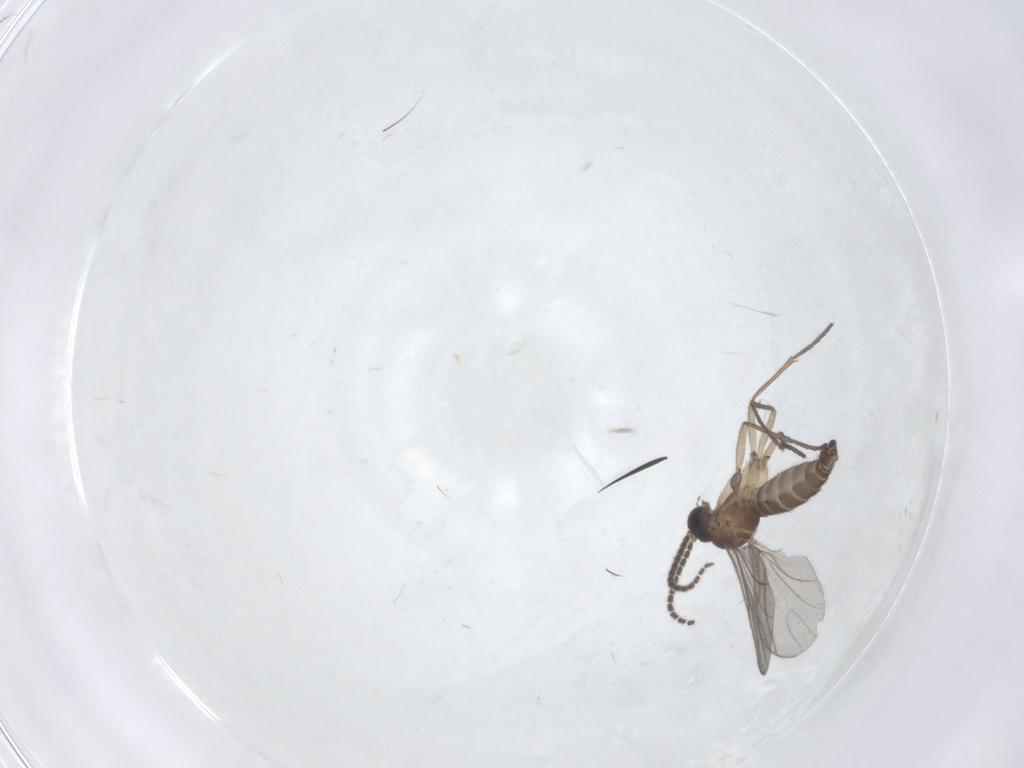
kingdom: Animalia
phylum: Arthropoda
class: Insecta
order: Diptera
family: Sciaridae
